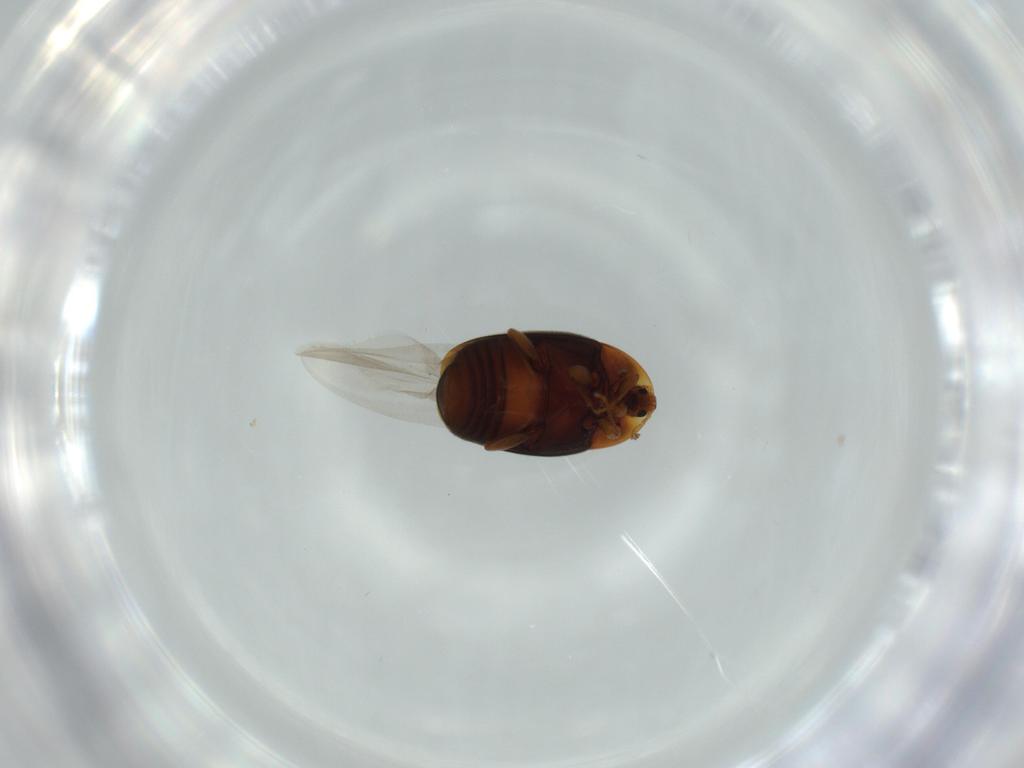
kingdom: Animalia
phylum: Arthropoda
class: Insecta
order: Coleoptera
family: Corylophidae
